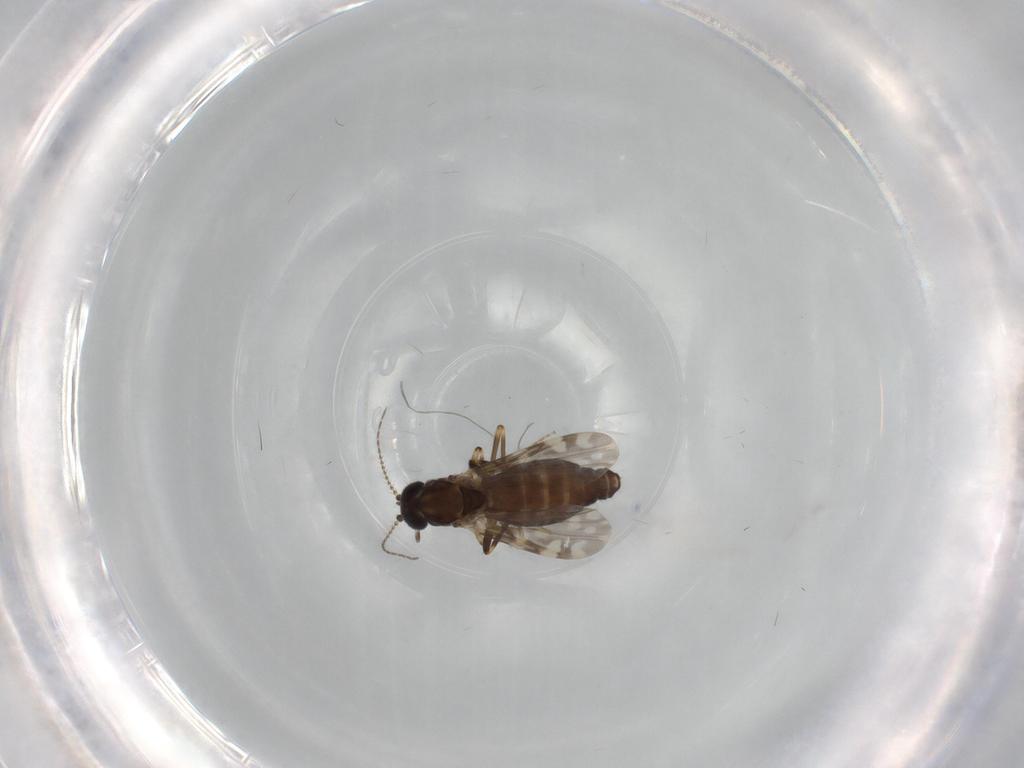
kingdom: Animalia
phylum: Arthropoda
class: Insecta
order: Diptera
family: Ceratopogonidae
